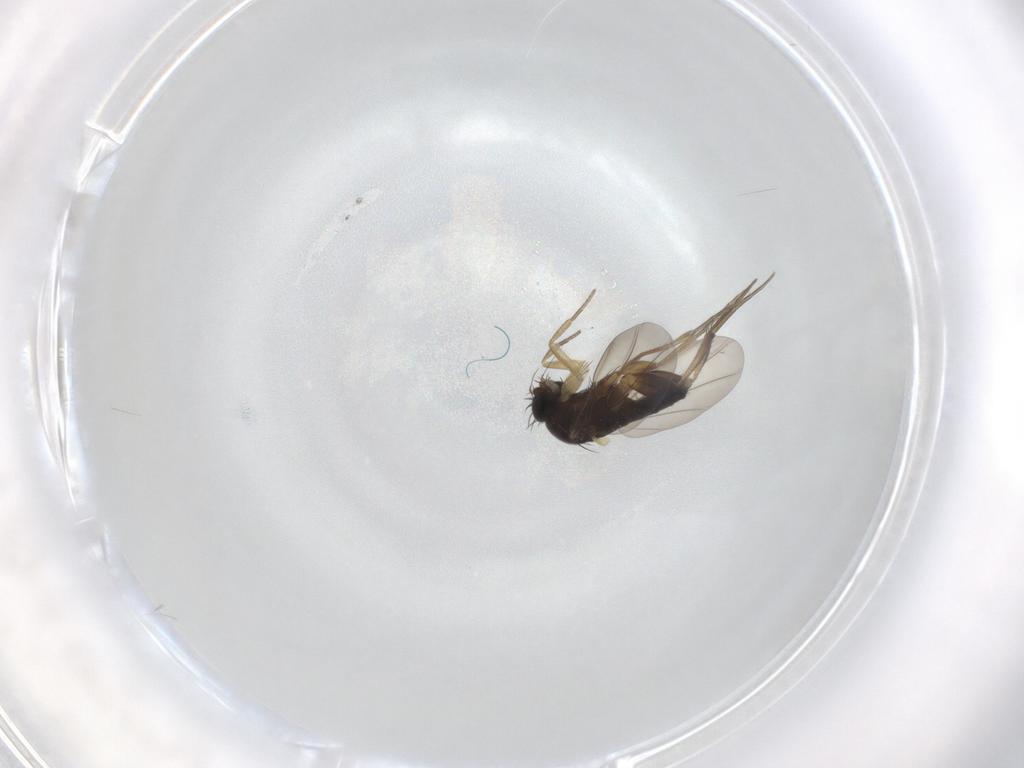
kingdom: Animalia
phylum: Arthropoda
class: Insecta
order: Diptera
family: Phoridae
